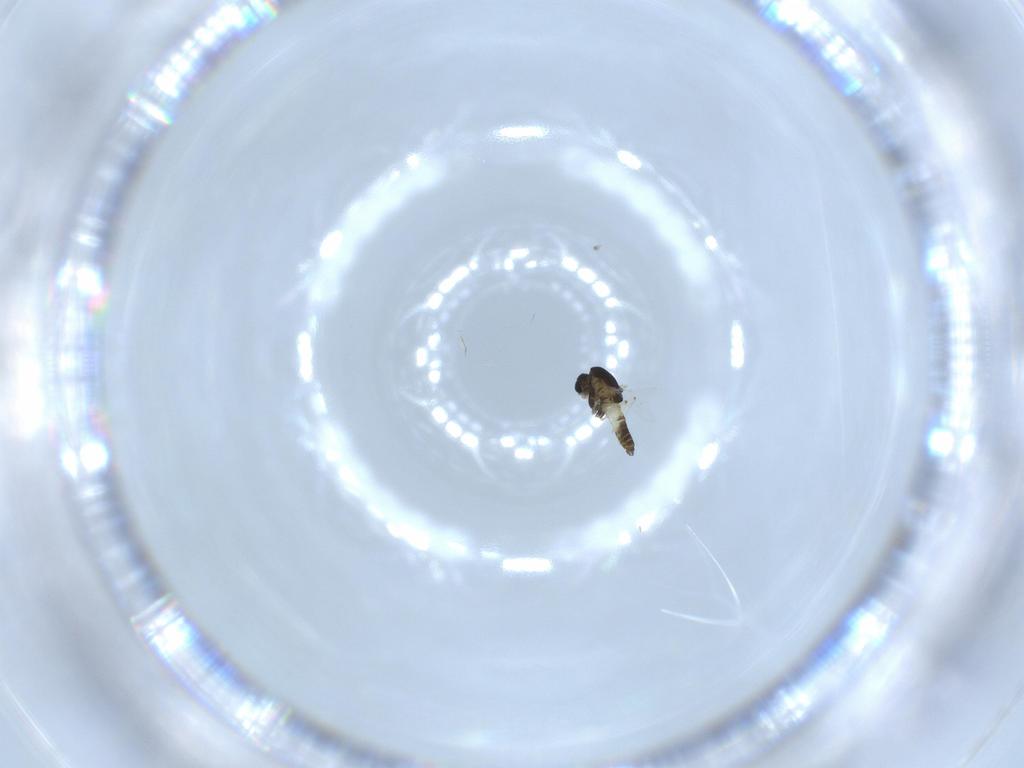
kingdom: Animalia
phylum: Arthropoda
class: Insecta
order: Diptera
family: Chironomidae
